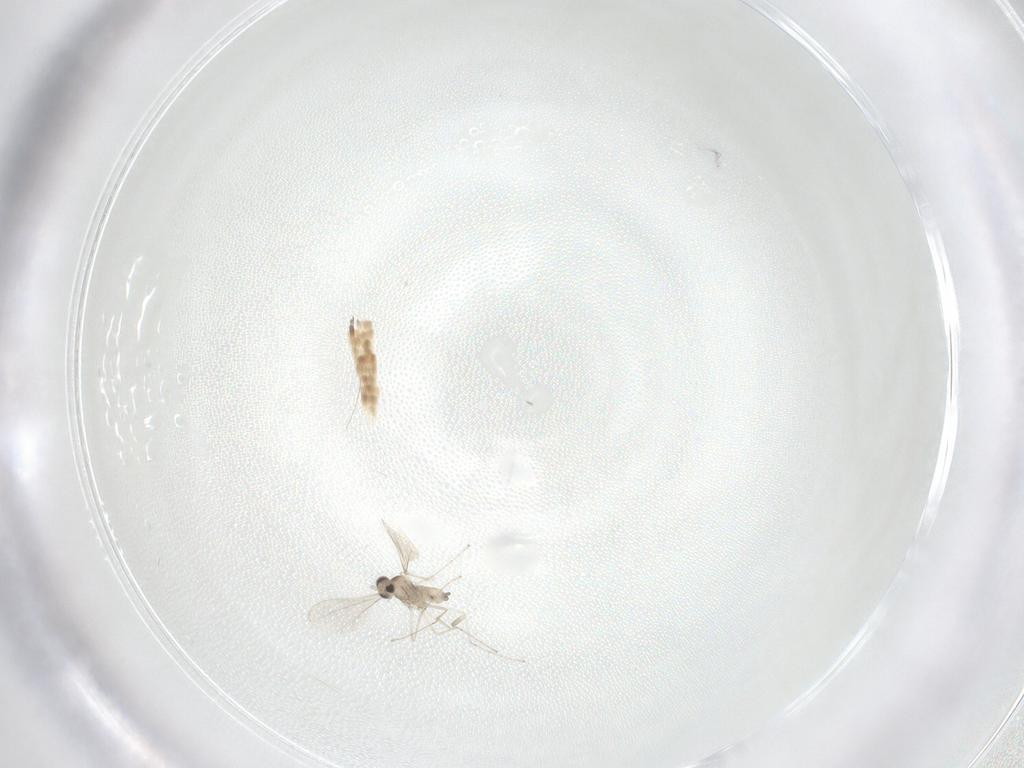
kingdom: Animalia
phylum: Arthropoda
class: Insecta
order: Diptera
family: Cecidomyiidae
